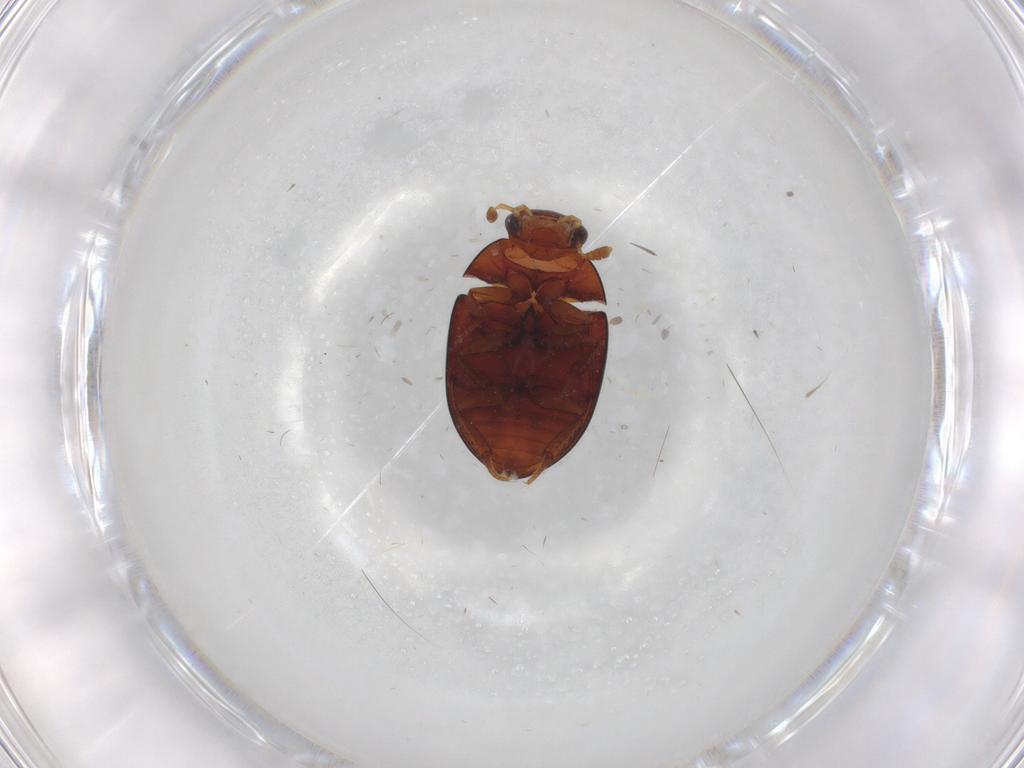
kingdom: Animalia
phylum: Arthropoda
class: Insecta
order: Coleoptera
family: Hydrophilidae
